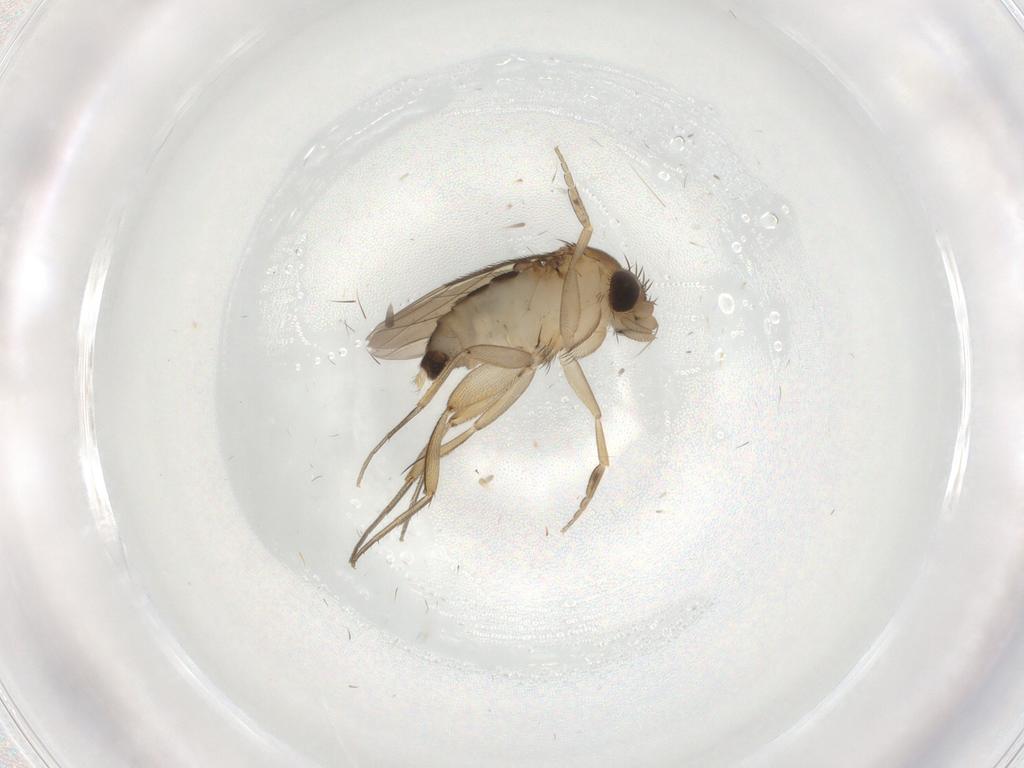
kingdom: Animalia
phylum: Arthropoda
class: Insecta
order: Diptera
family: Phoridae
